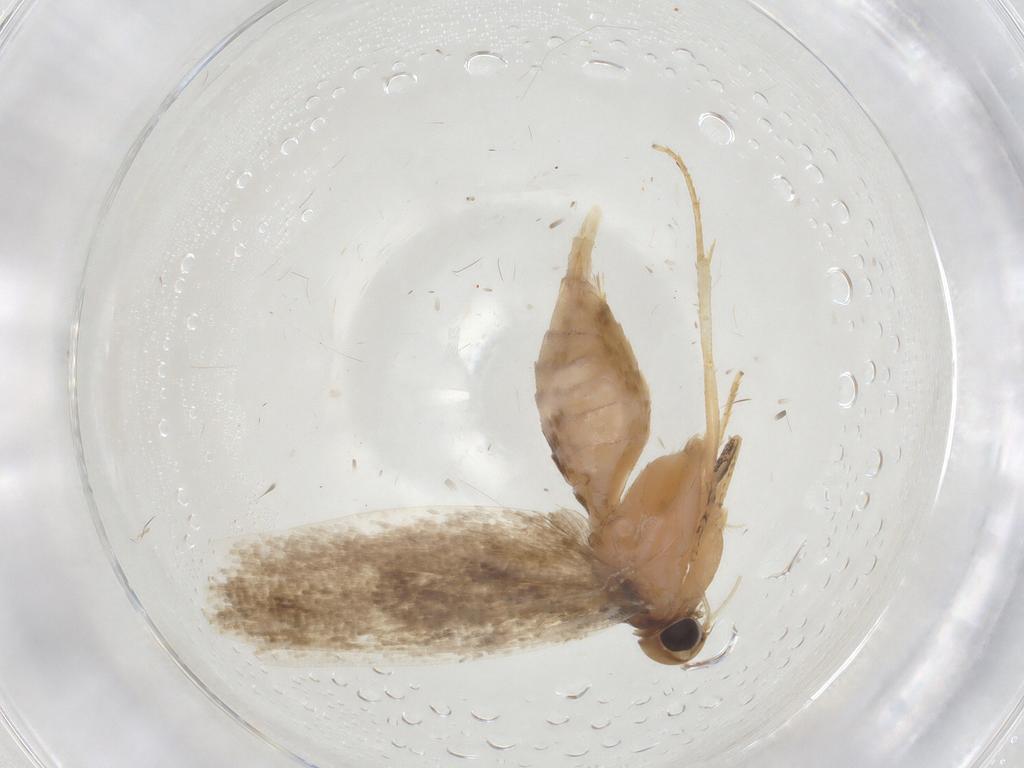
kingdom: Animalia
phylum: Arthropoda
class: Insecta
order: Lepidoptera
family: Gelechiidae
